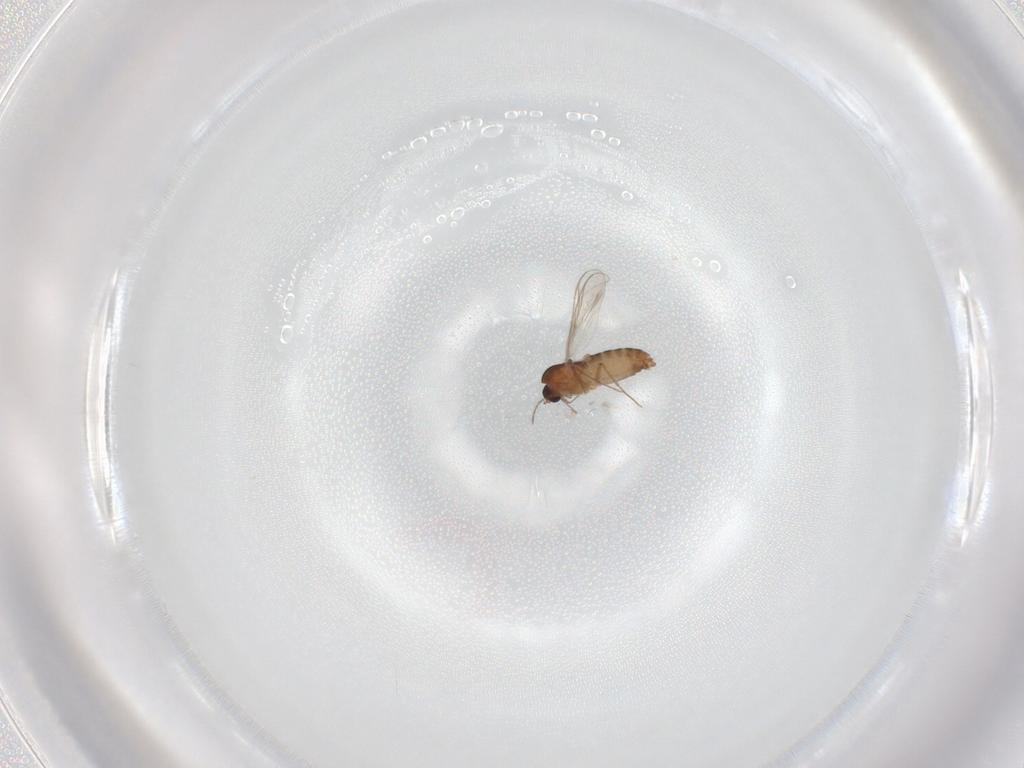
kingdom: Animalia
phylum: Arthropoda
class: Insecta
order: Diptera
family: Chironomidae
